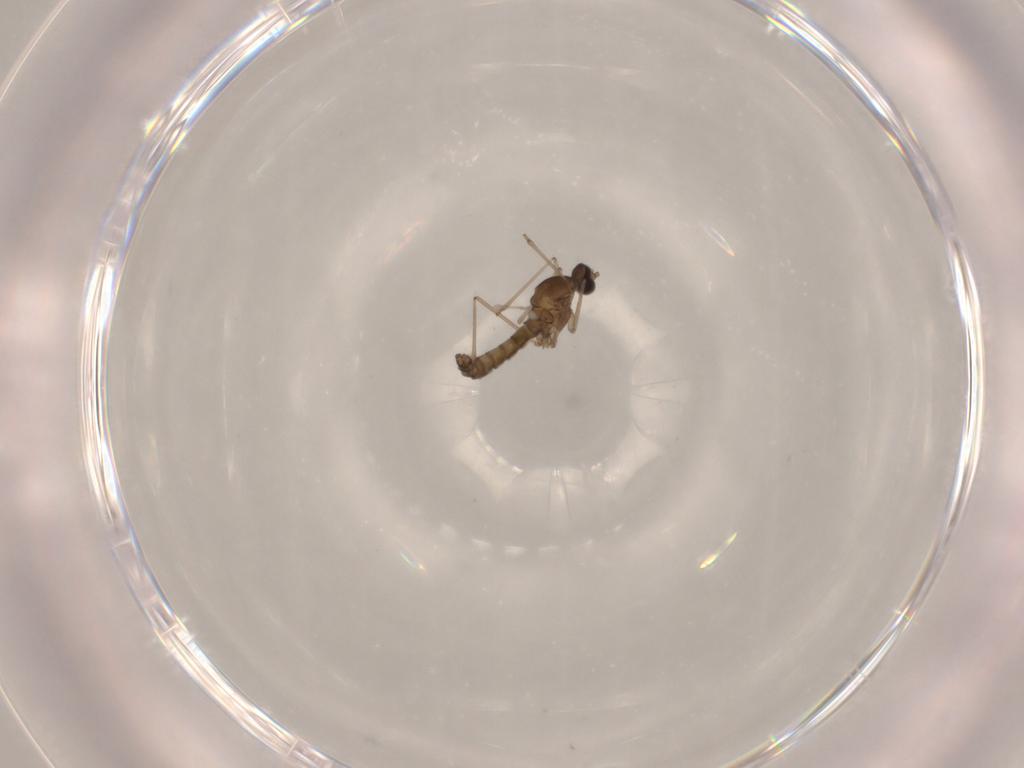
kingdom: Animalia
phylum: Arthropoda
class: Insecta
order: Diptera
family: Cecidomyiidae
